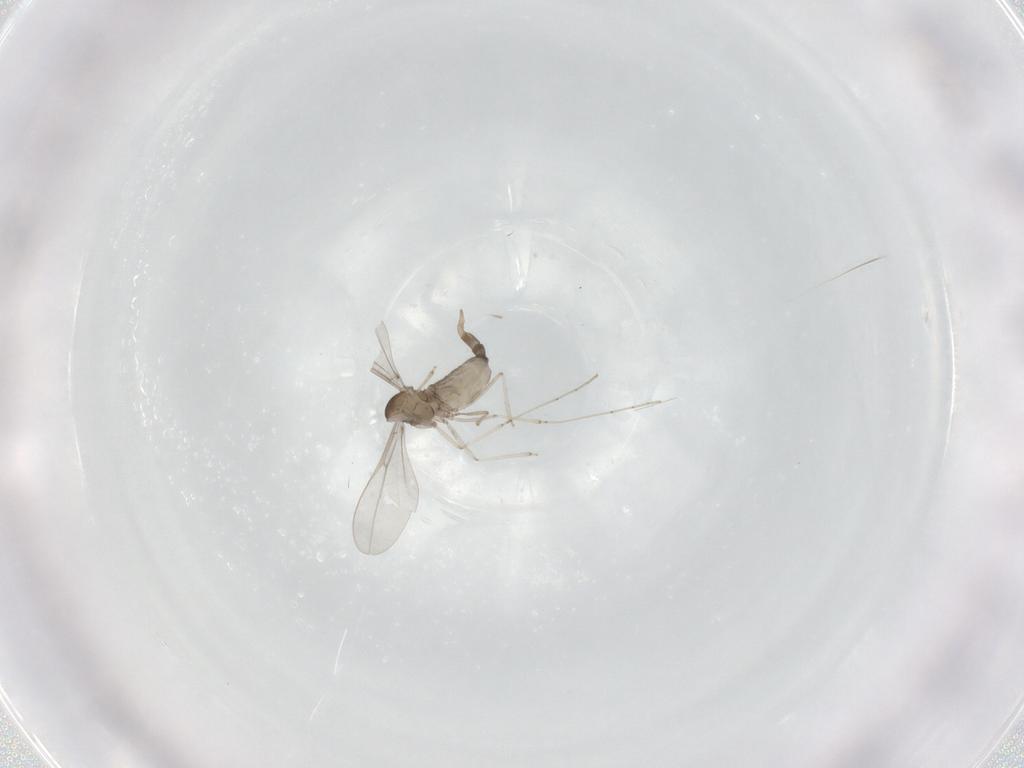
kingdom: Animalia
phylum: Arthropoda
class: Insecta
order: Diptera
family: Cecidomyiidae
